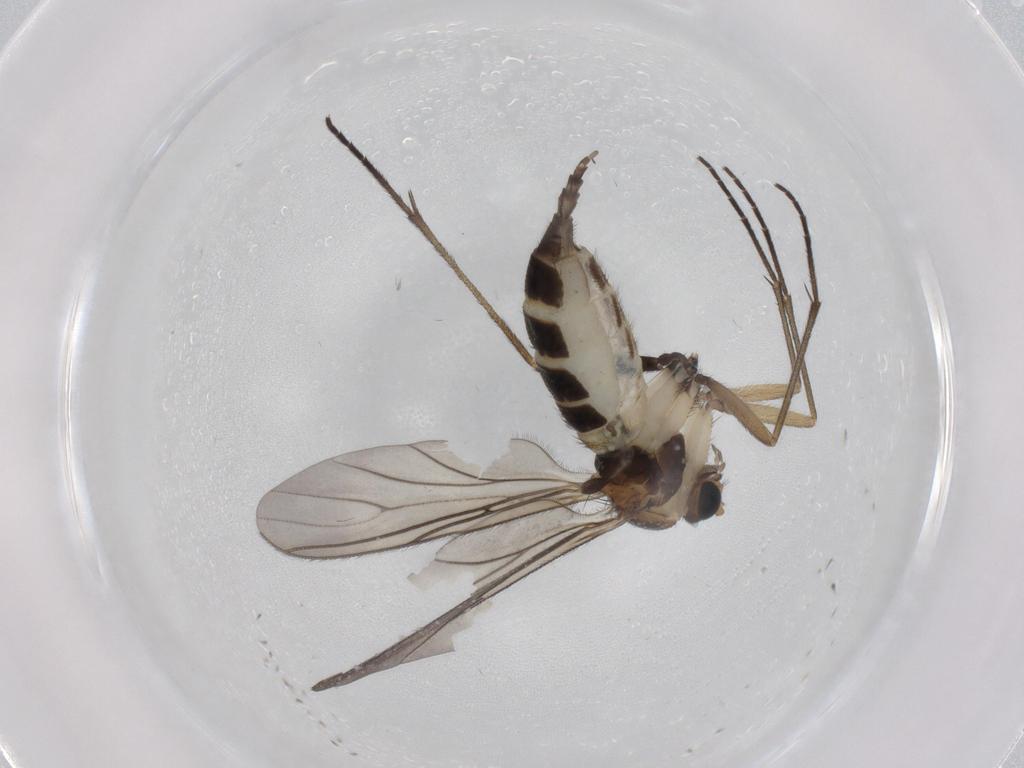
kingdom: Animalia
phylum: Arthropoda
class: Insecta
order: Diptera
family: Sciaridae
